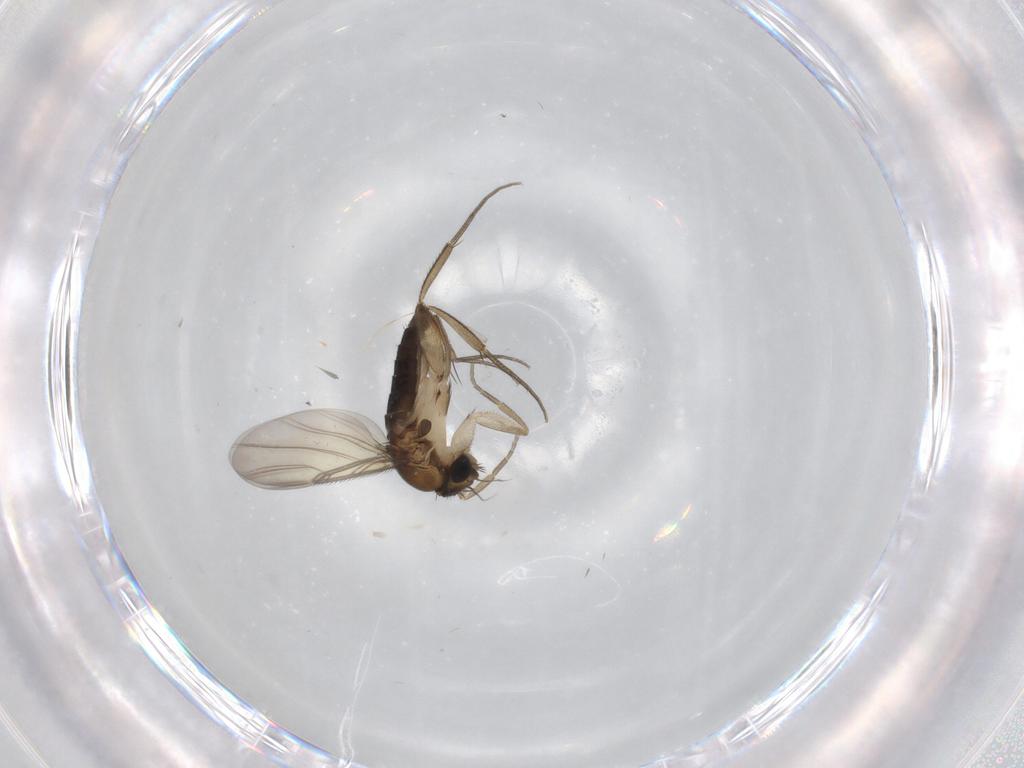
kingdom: Animalia
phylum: Arthropoda
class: Insecta
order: Diptera
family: Phoridae
